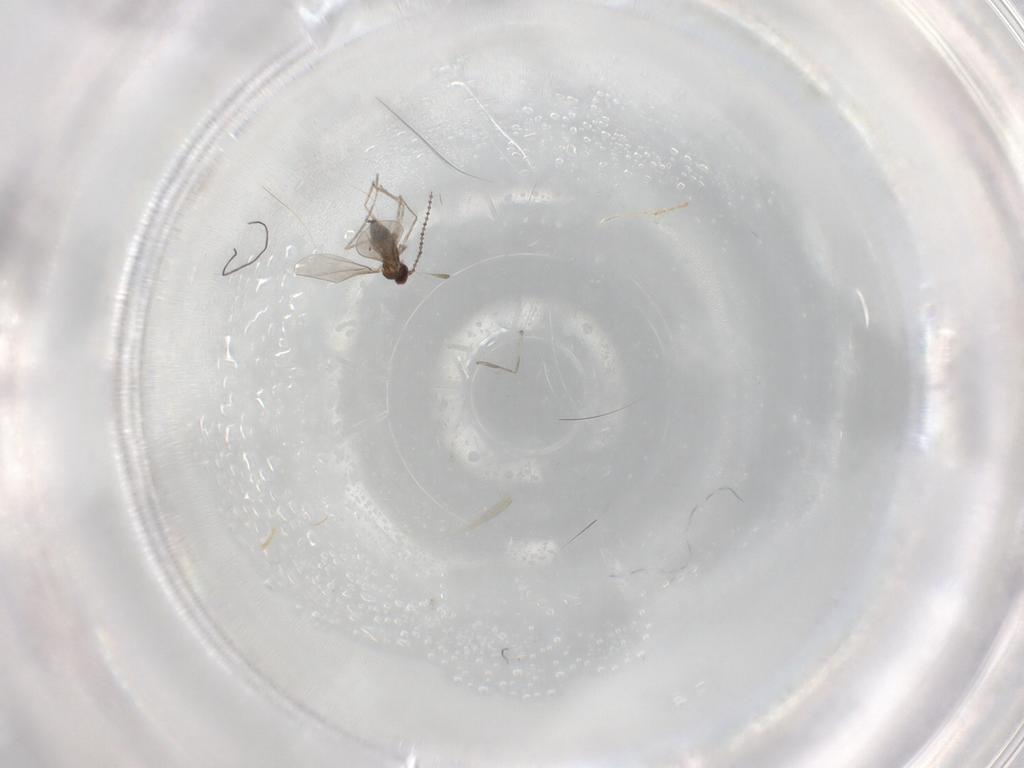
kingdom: Animalia
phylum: Arthropoda
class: Insecta
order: Diptera
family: Cecidomyiidae
